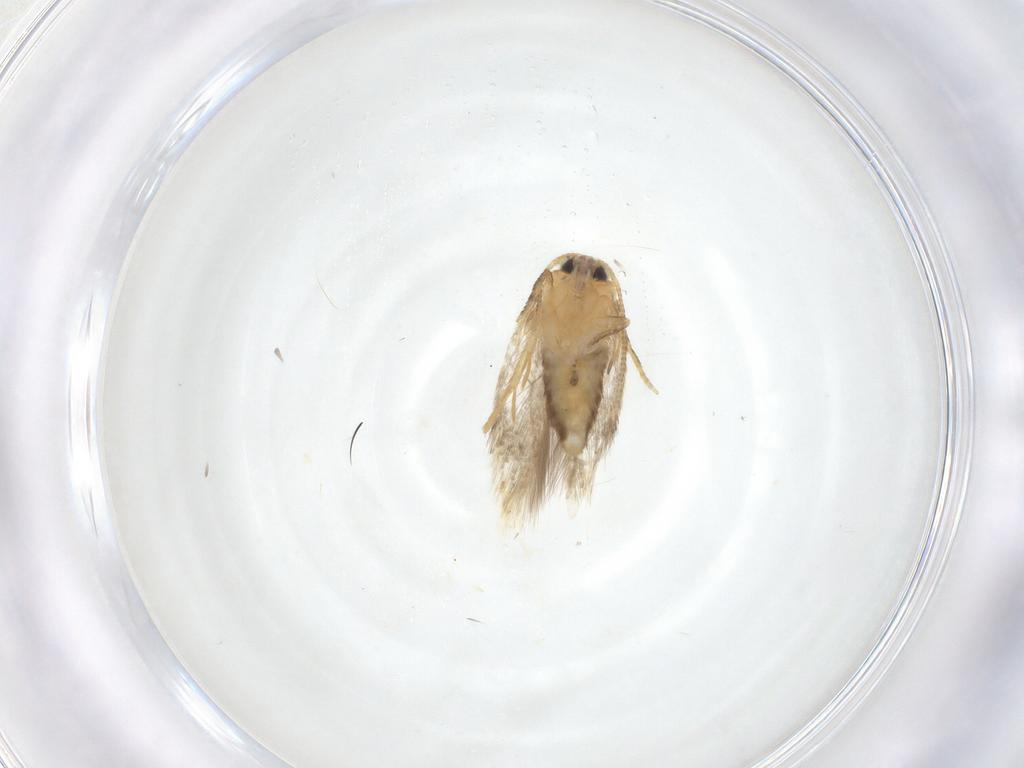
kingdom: Animalia
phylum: Arthropoda
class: Insecta
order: Lepidoptera
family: Nepticulidae
